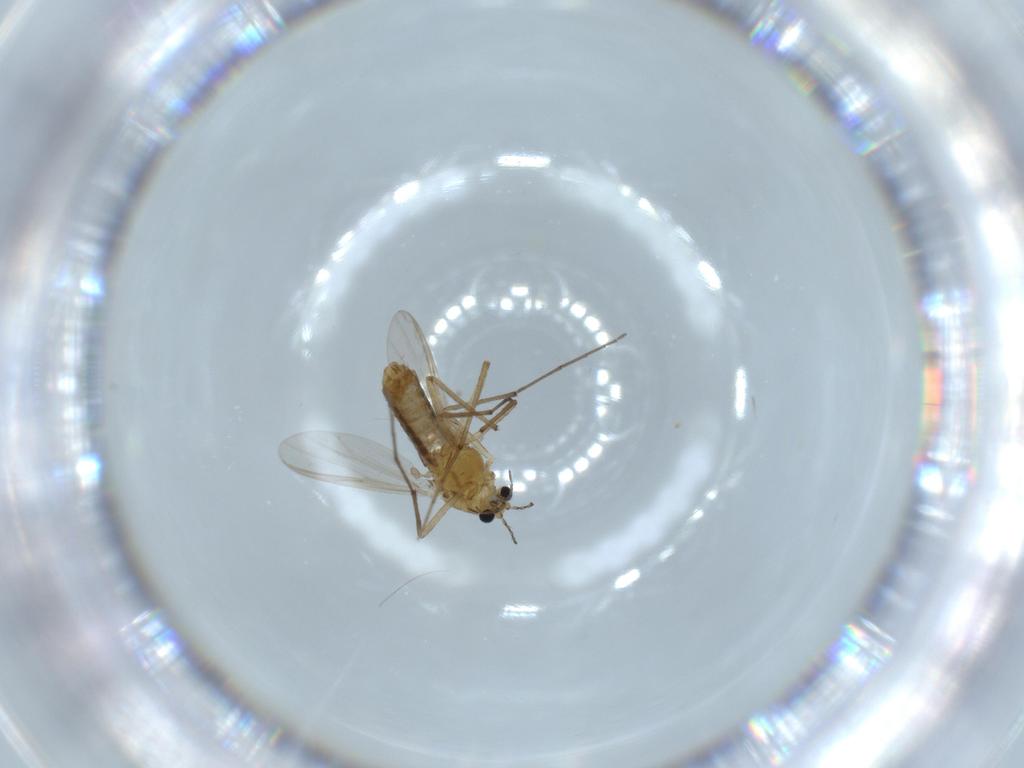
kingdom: Animalia
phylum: Arthropoda
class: Insecta
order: Diptera
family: Chironomidae
